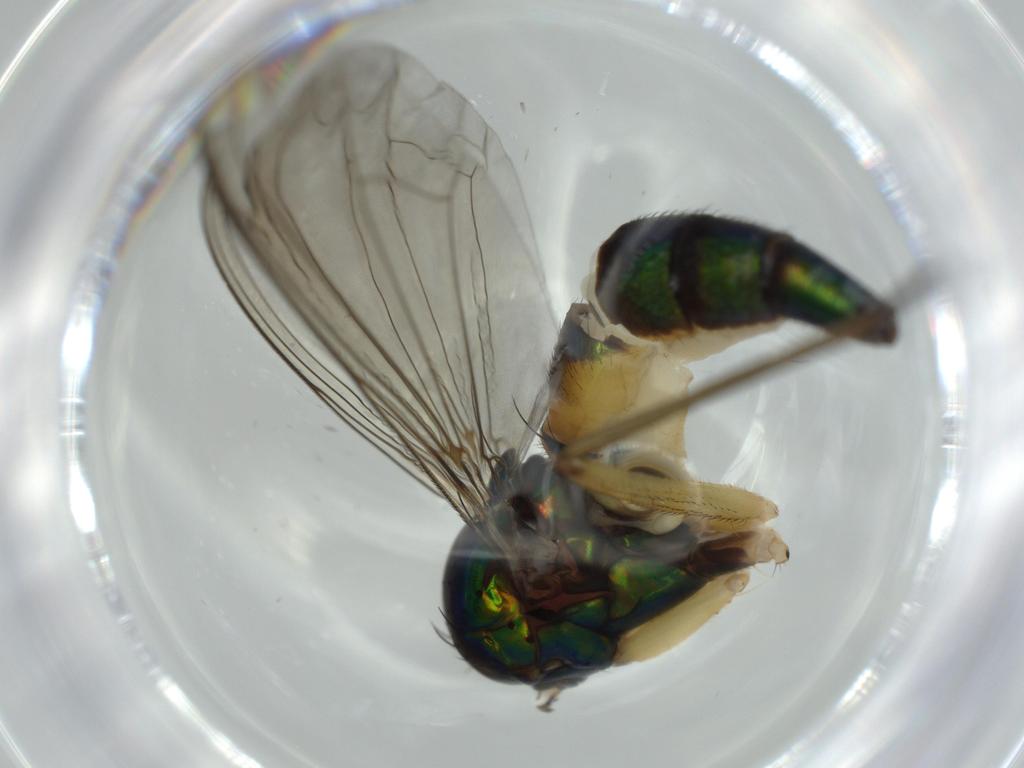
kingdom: Animalia
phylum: Arthropoda
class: Insecta
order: Diptera
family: Dolichopodidae
